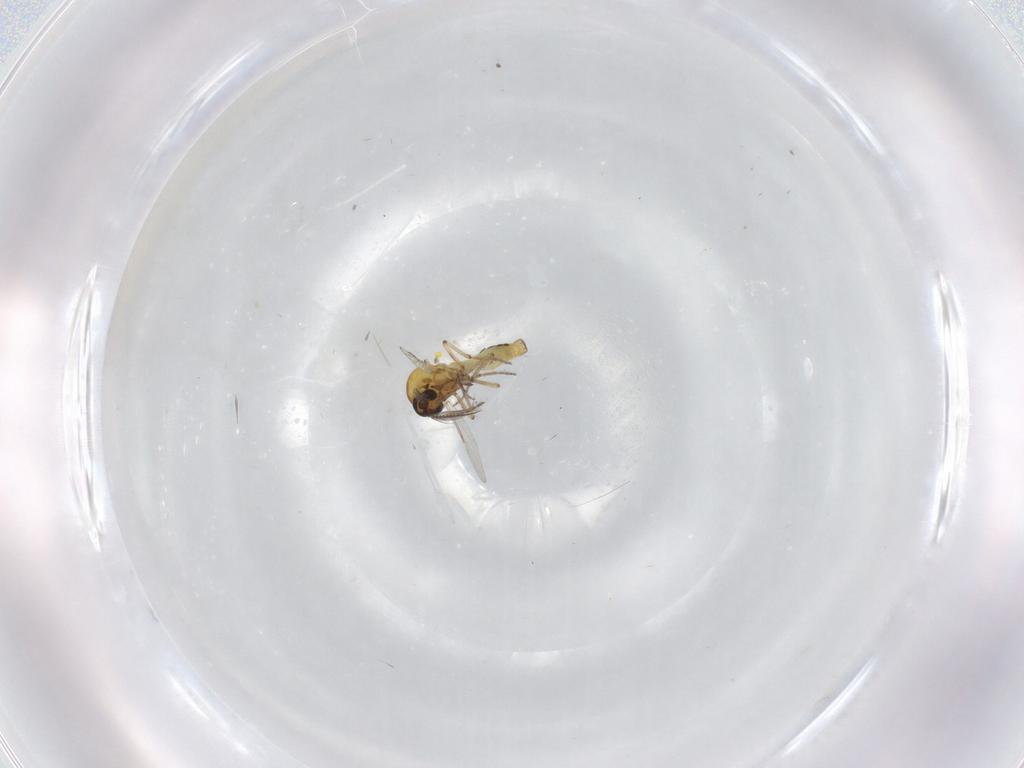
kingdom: Animalia
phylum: Arthropoda
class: Insecta
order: Diptera
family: Ceratopogonidae
